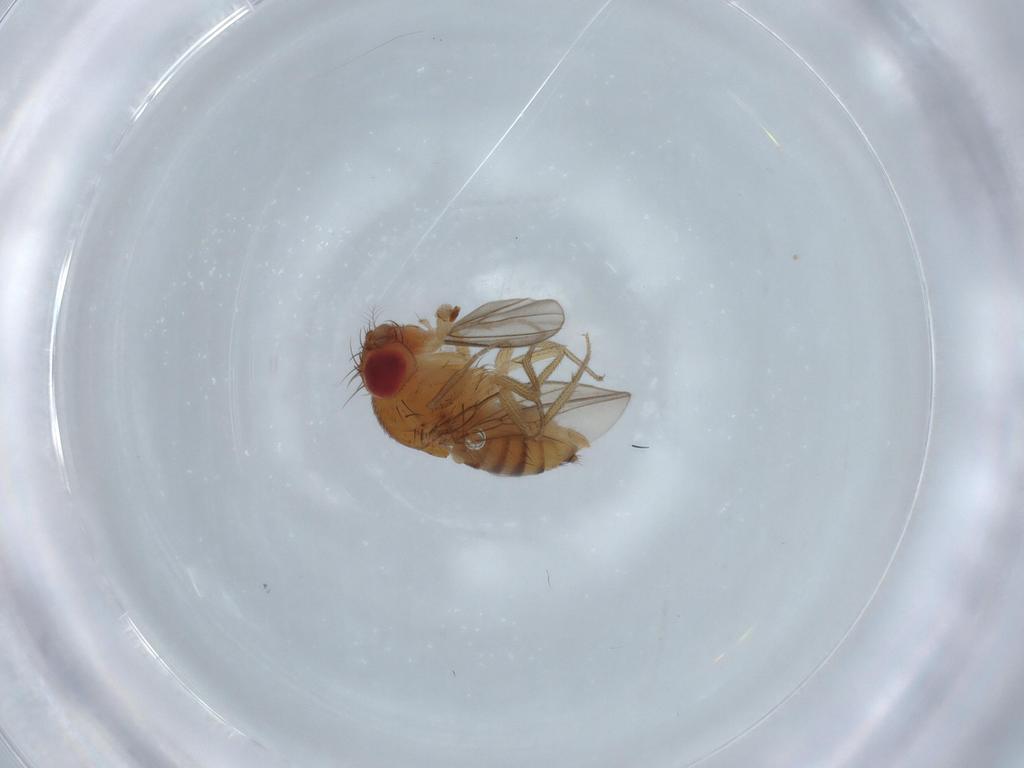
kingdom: Animalia
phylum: Arthropoda
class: Insecta
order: Diptera
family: Drosophilidae
